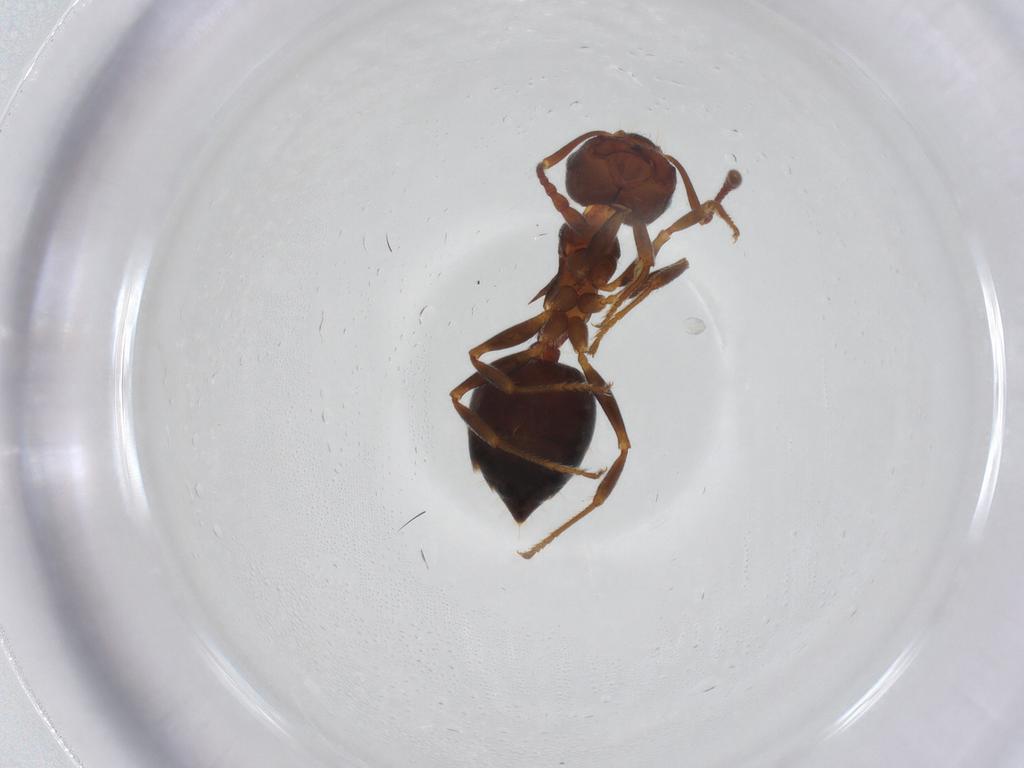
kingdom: Animalia
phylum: Arthropoda
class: Insecta
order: Hymenoptera
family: Formicidae
